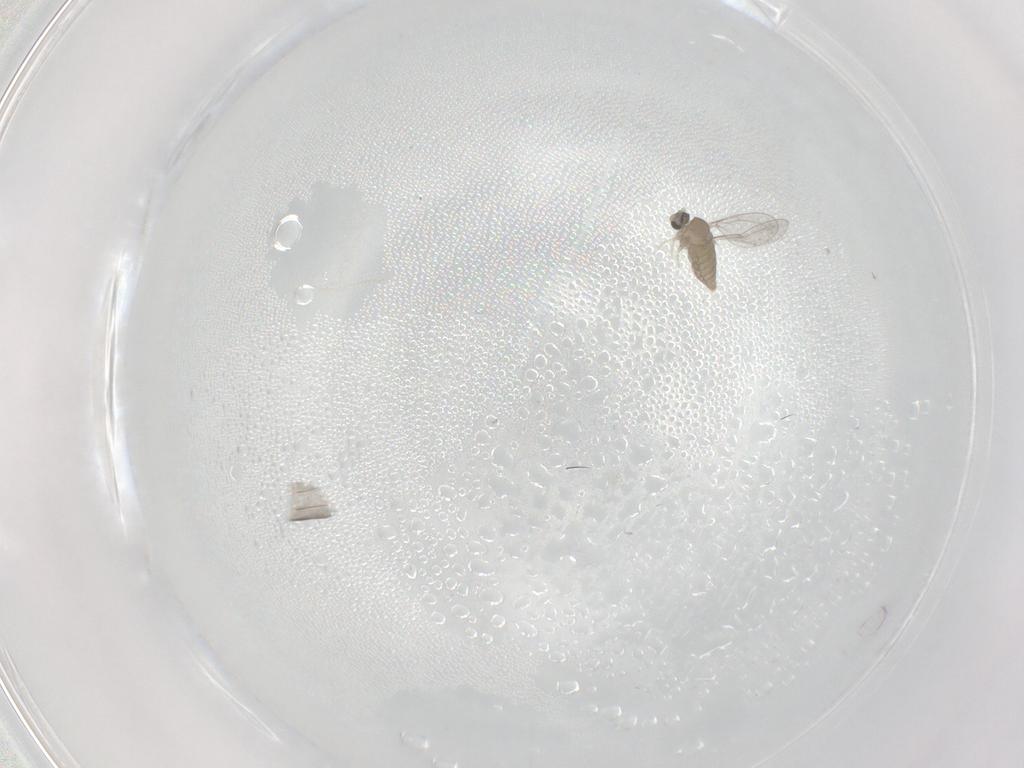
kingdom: Animalia
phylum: Arthropoda
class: Insecta
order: Diptera
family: Cecidomyiidae
